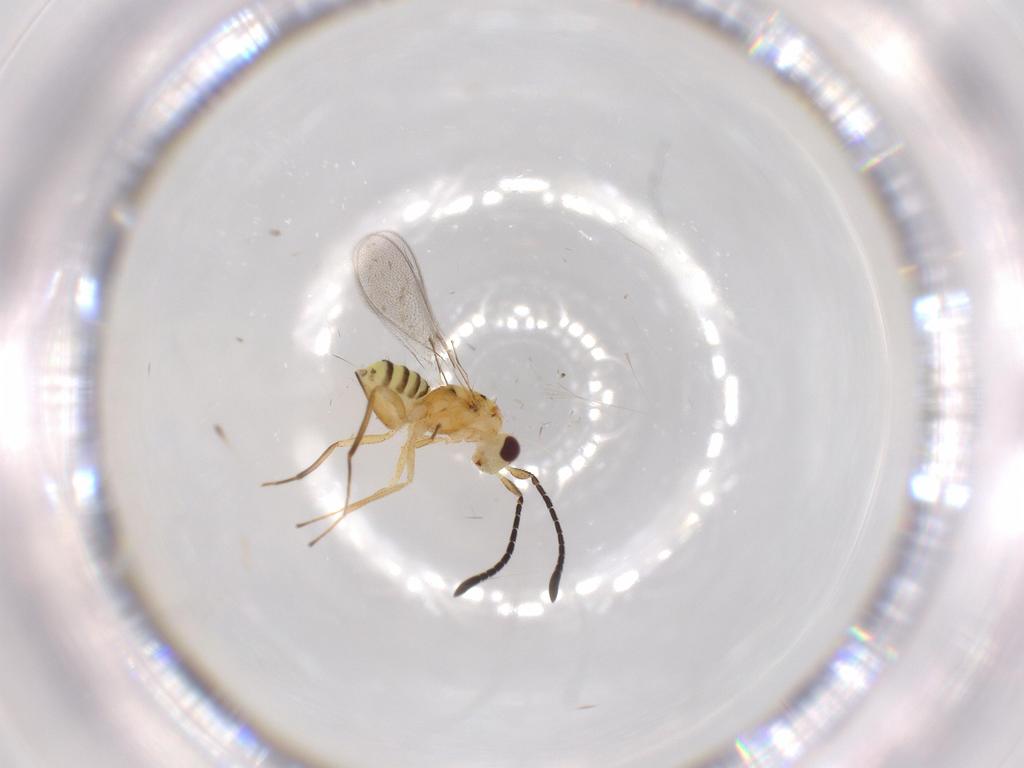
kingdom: Animalia
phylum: Arthropoda
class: Insecta
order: Hymenoptera
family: Bethylidae
